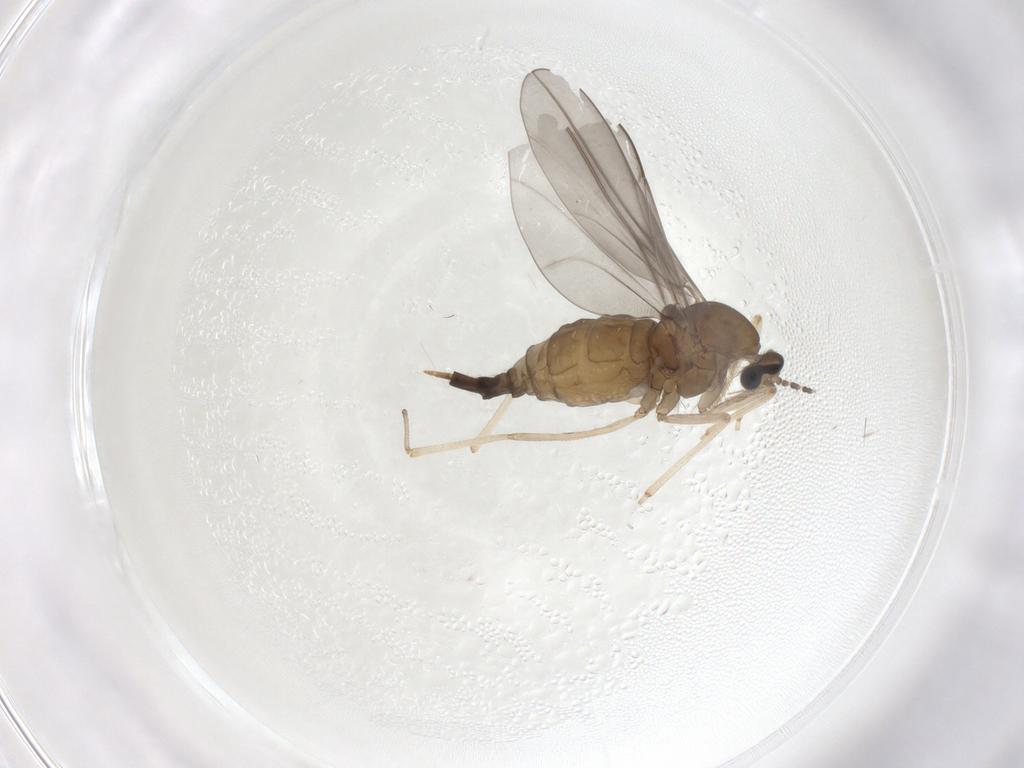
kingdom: Animalia
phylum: Arthropoda
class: Insecta
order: Diptera
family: Cecidomyiidae
